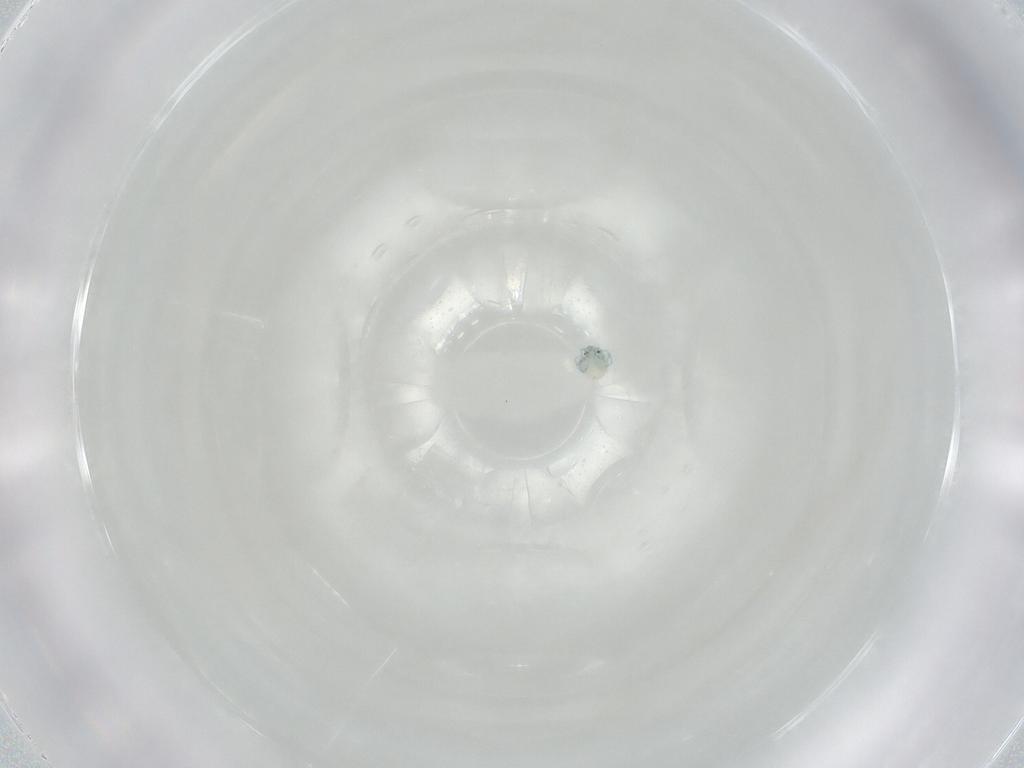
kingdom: Animalia
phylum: Arthropoda
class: Arachnida
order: Trombidiformes
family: Arrenuridae
